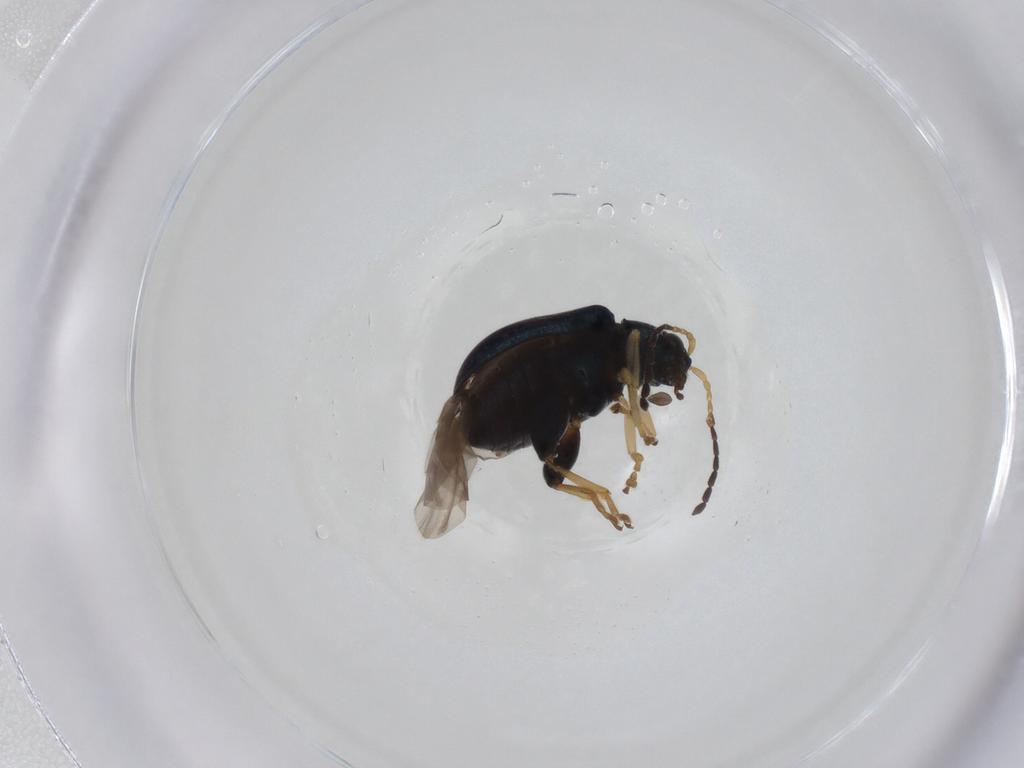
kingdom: Animalia
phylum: Arthropoda
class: Insecta
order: Coleoptera
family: Chrysomelidae
